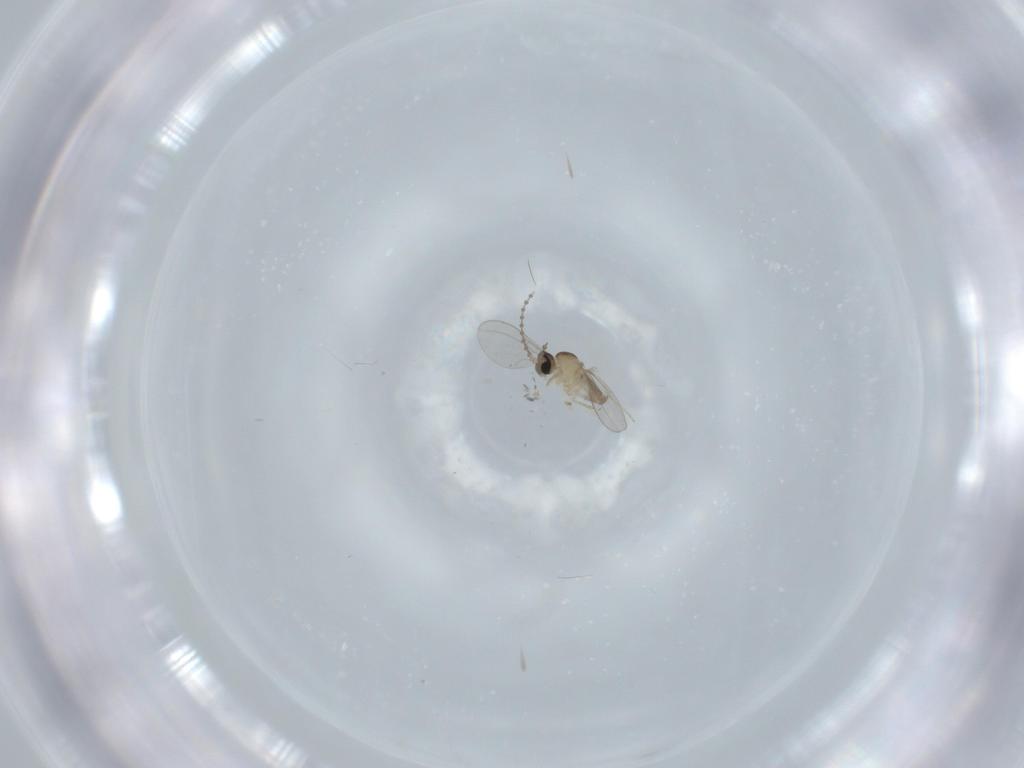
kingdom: Animalia
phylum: Arthropoda
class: Insecta
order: Diptera
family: Cecidomyiidae
